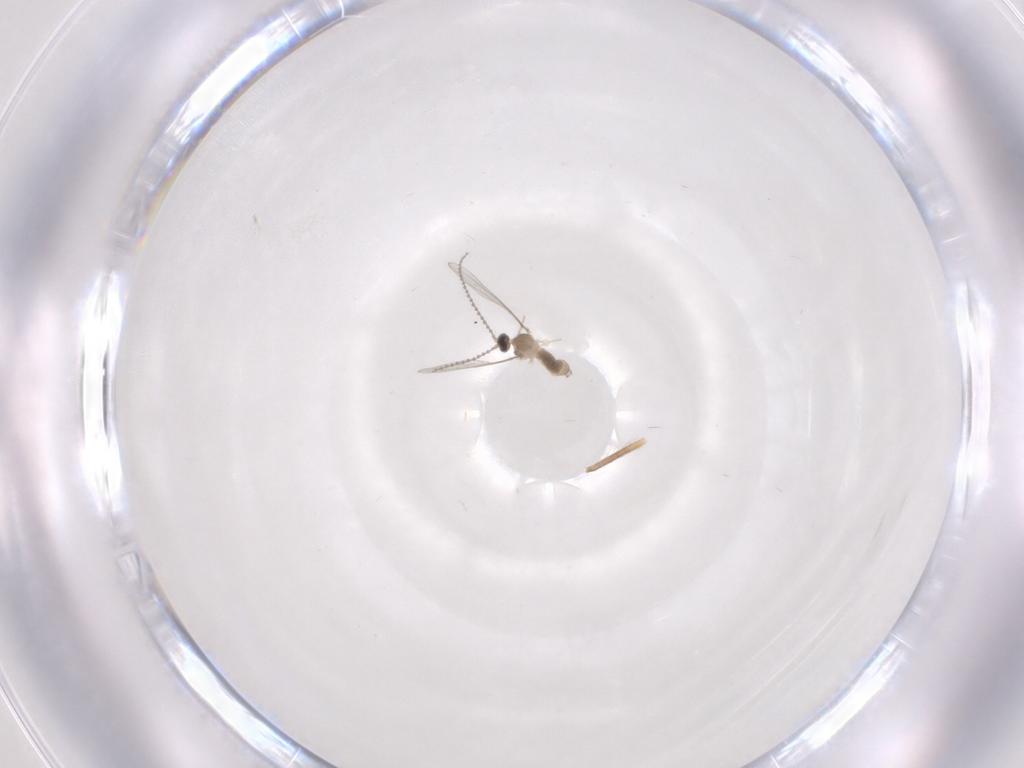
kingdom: Animalia
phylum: Arthropoda
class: Insecta
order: Diptera
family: Cecidomyiidae
